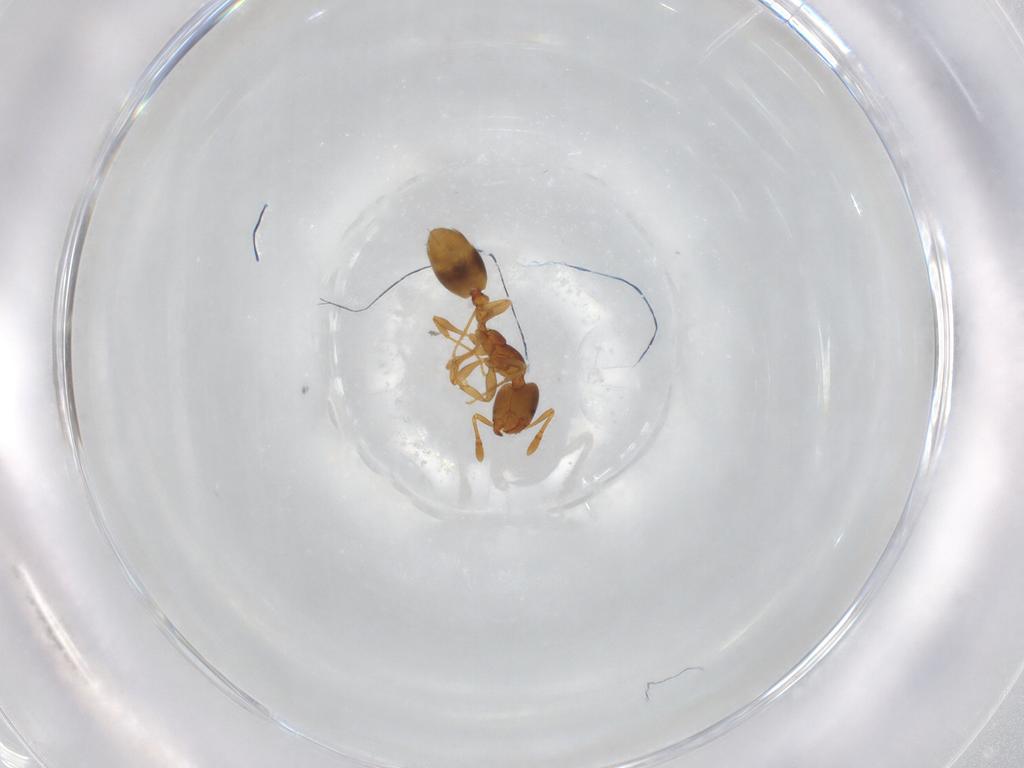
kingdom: Animalia
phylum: Arthropoda
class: Insecta
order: Hymenoptera
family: Formicidae
